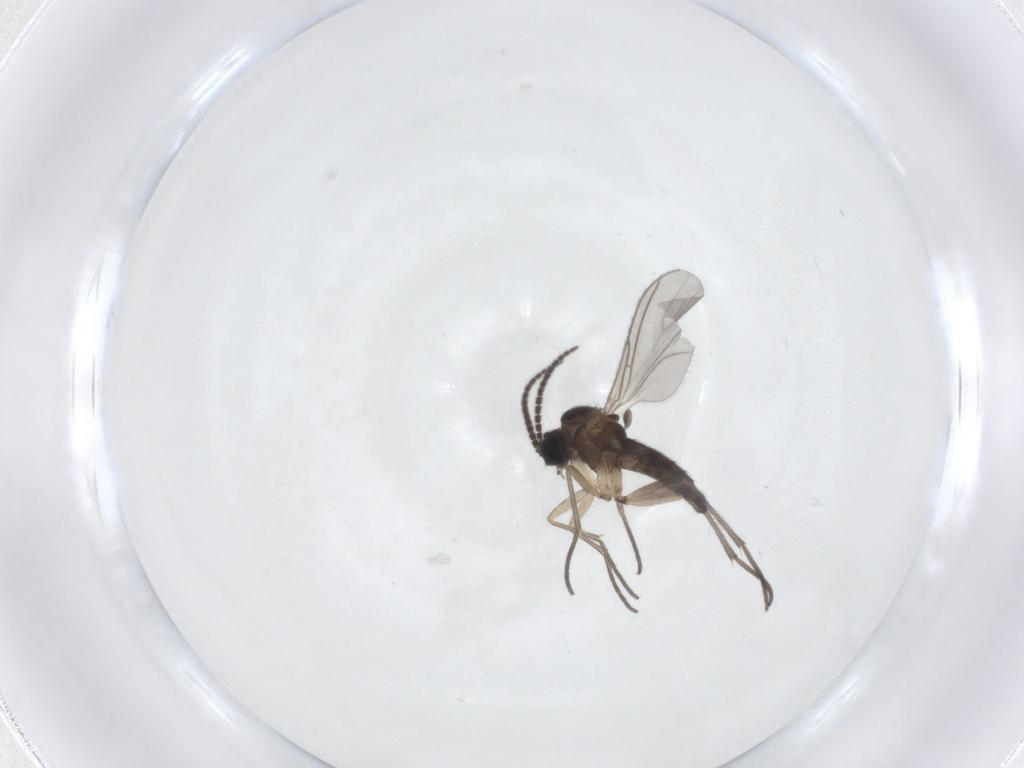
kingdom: Animalia
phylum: Arthropoda
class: Insecta
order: Diptera
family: Sciaridae
